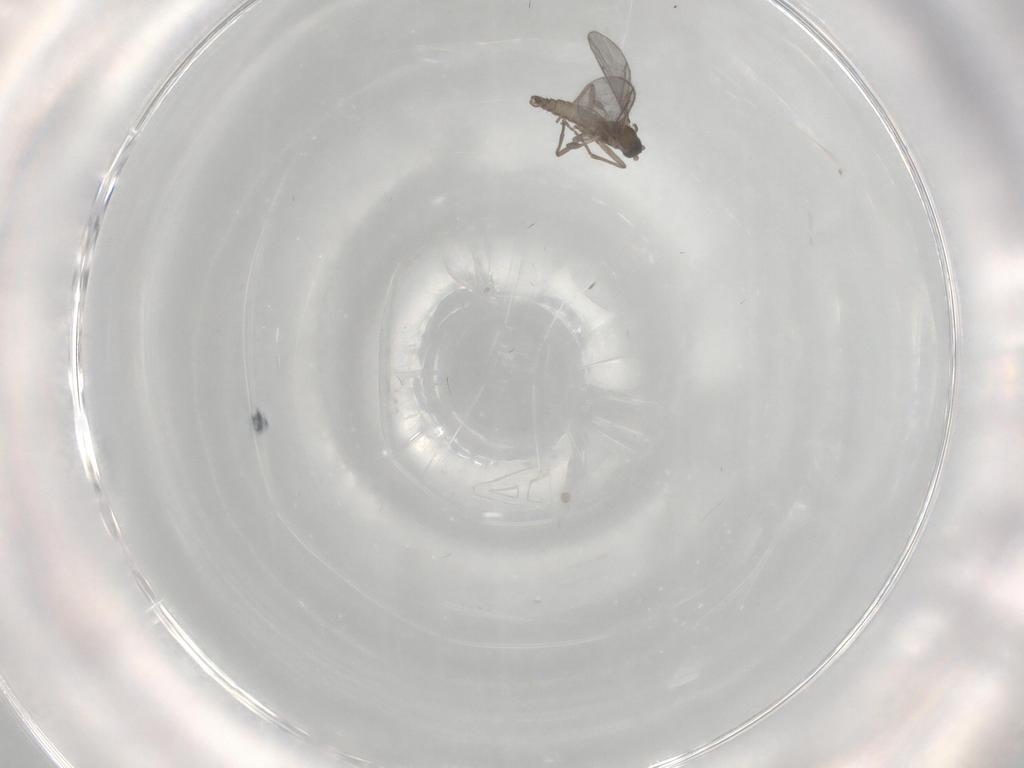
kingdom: Animalia
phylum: Arthropoda
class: Insecta
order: Diptera
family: Sciaridae
